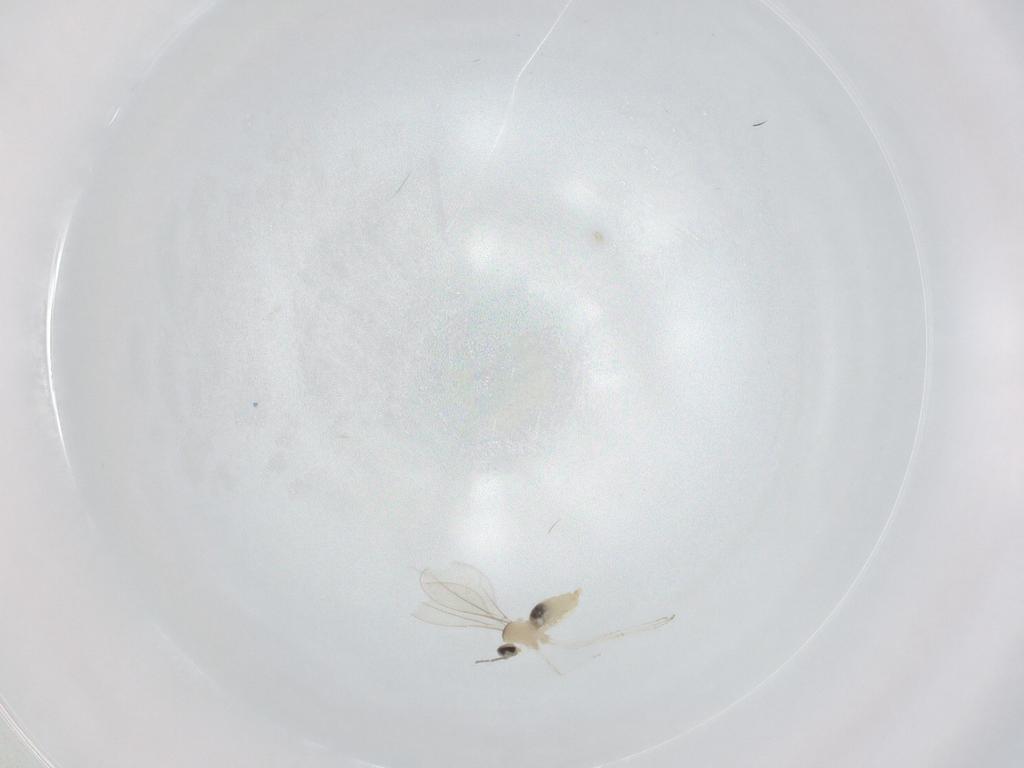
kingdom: Animalia
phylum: Arthropoda
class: Insecta
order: Diptera
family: Cecidomyiidae
